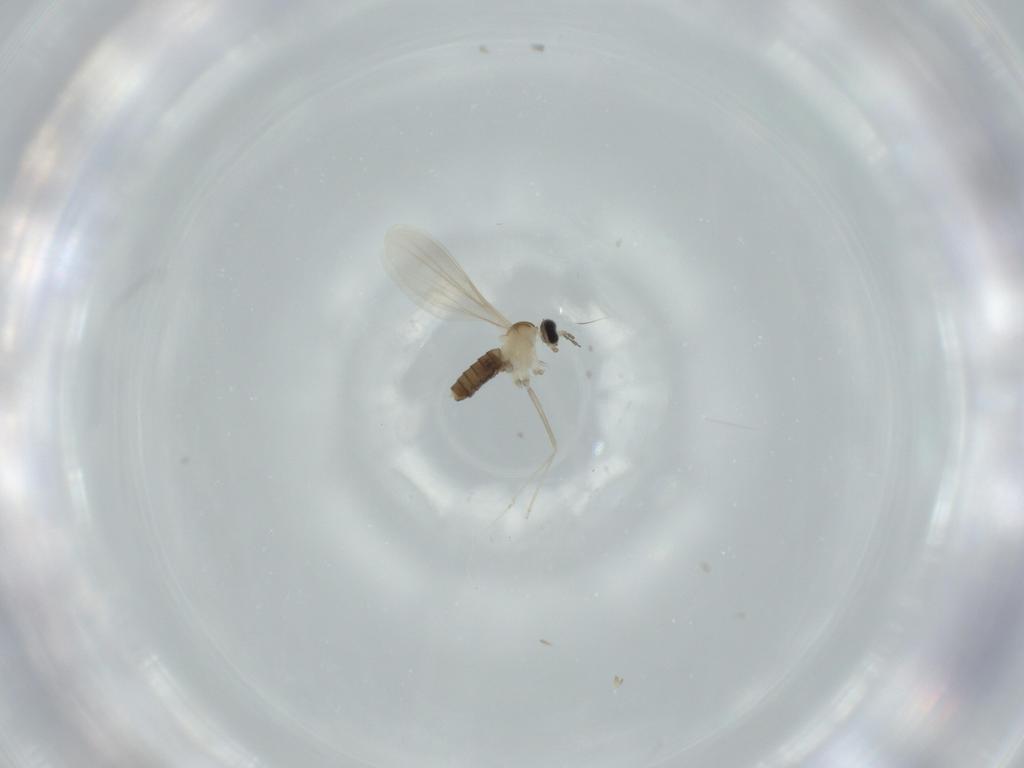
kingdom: Animalia
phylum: Arthropoda
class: Insecta
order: Diptera
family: Cecidomyiidae
